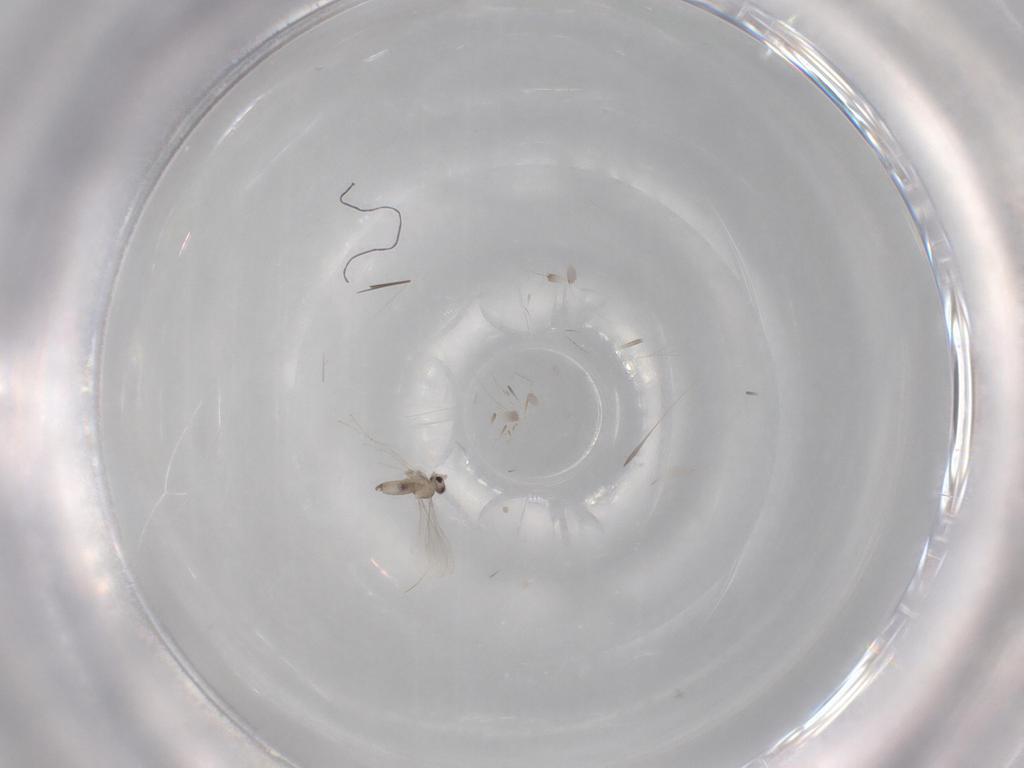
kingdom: Animalia
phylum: Arthropoda
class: Insecta
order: Diptera
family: Cecidomyiidae
